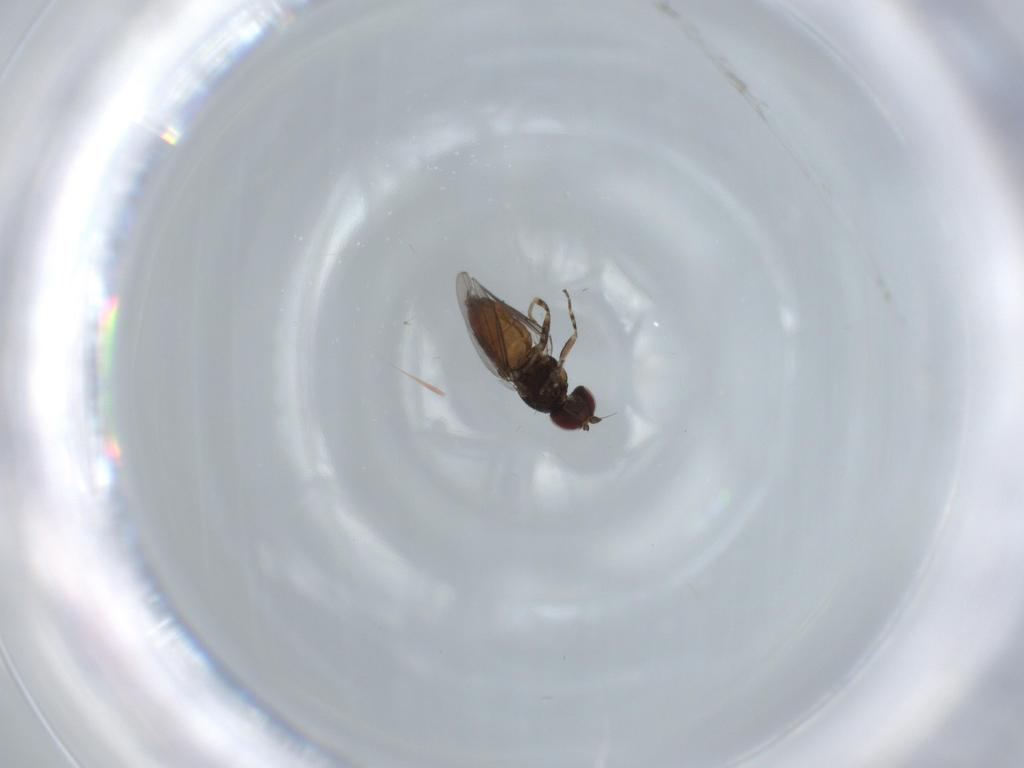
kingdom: Animalia
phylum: Arthropoda
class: Insecta
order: Diptera
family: Chloropidae
